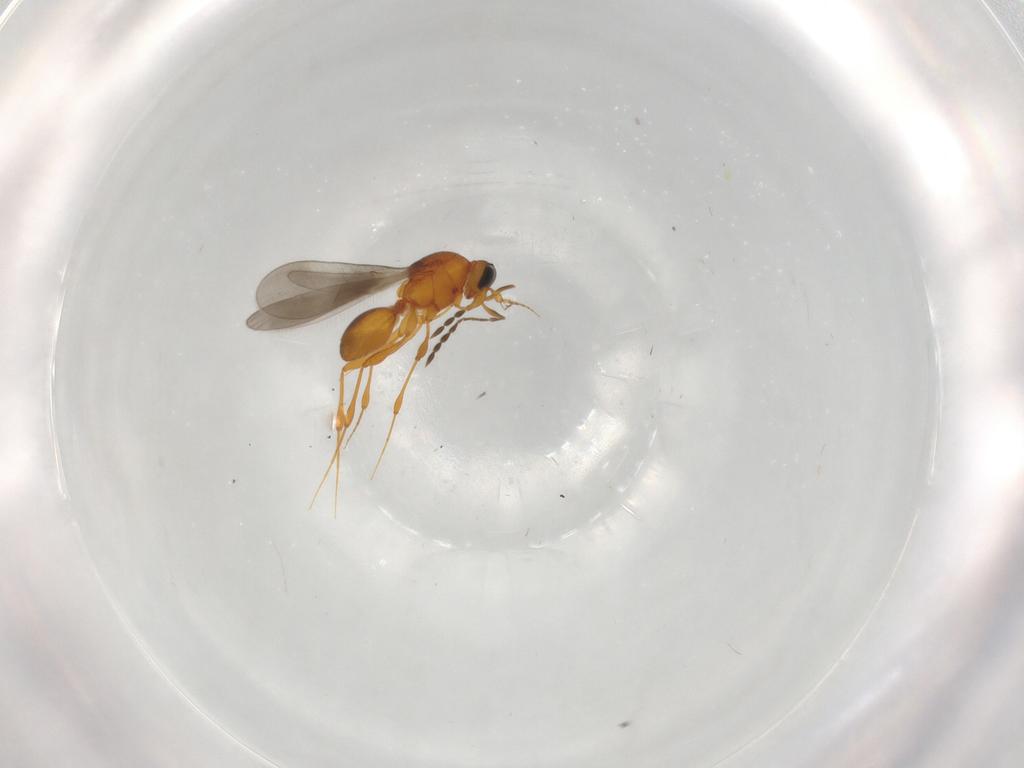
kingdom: Animalia
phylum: Arthropoda
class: Insecta
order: Hymenoptera
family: Platygastridae
